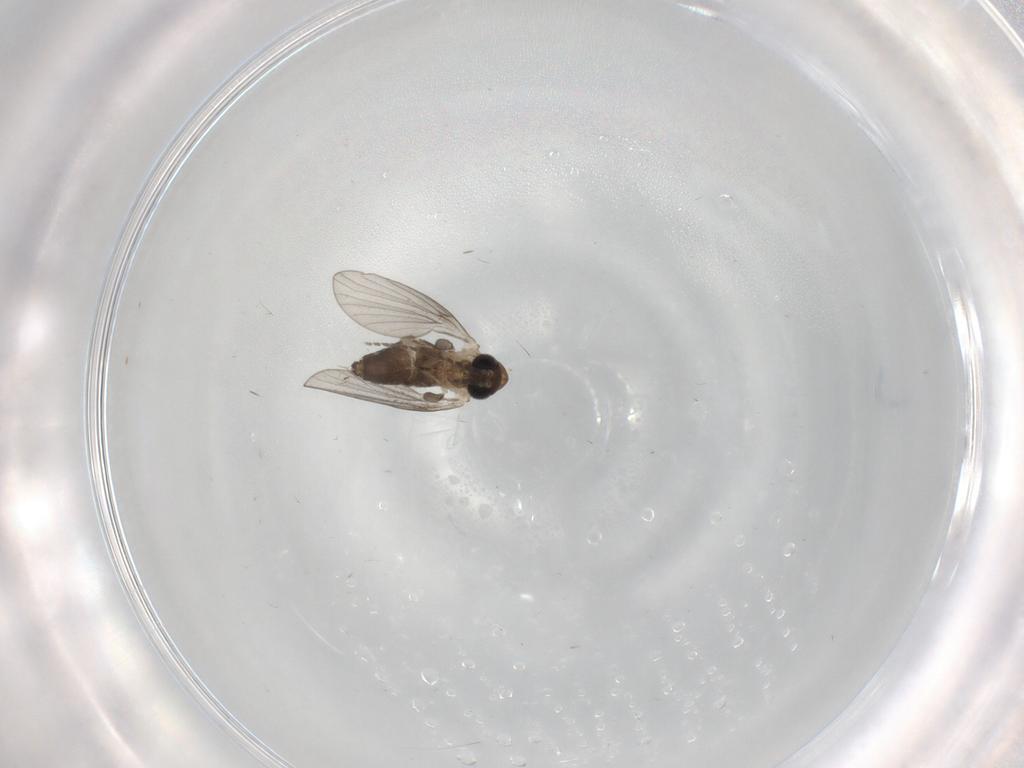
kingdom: Animalia
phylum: Arthropoda
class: Insecta
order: Diptera
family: Psychodidae
